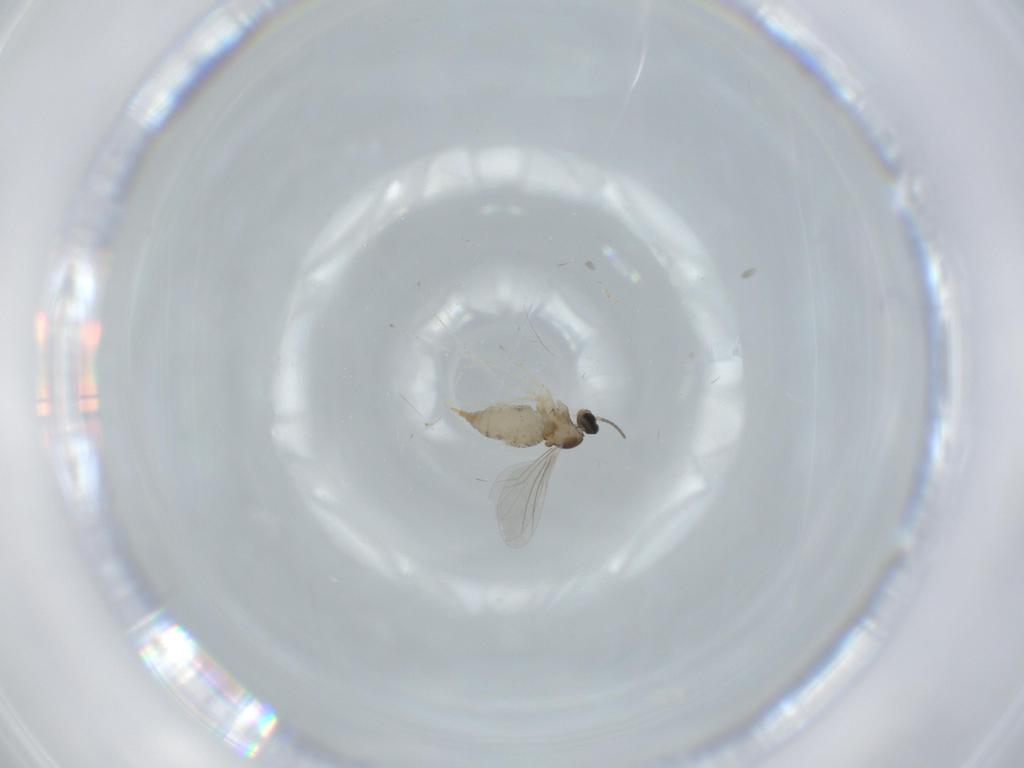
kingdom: Animalia
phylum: Arthropoda
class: Insecta
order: Diptera
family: Cecidomyiidae
